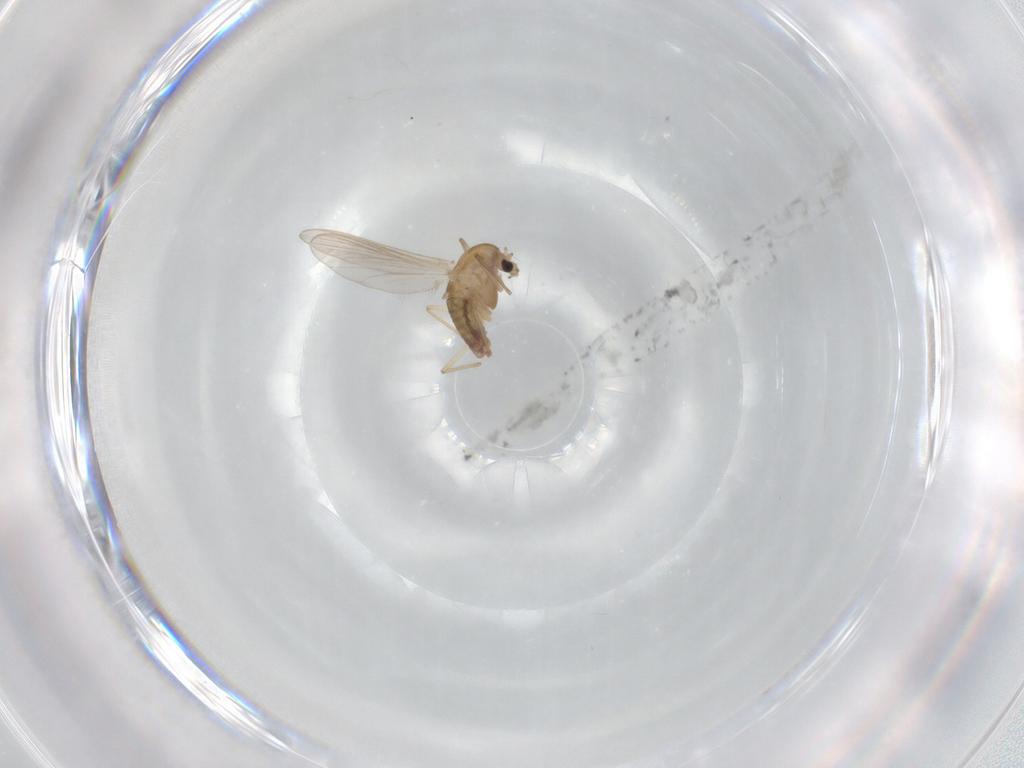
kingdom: Animalia
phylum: Arthropoda
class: Insecta
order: Diptera
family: Chironomidae
